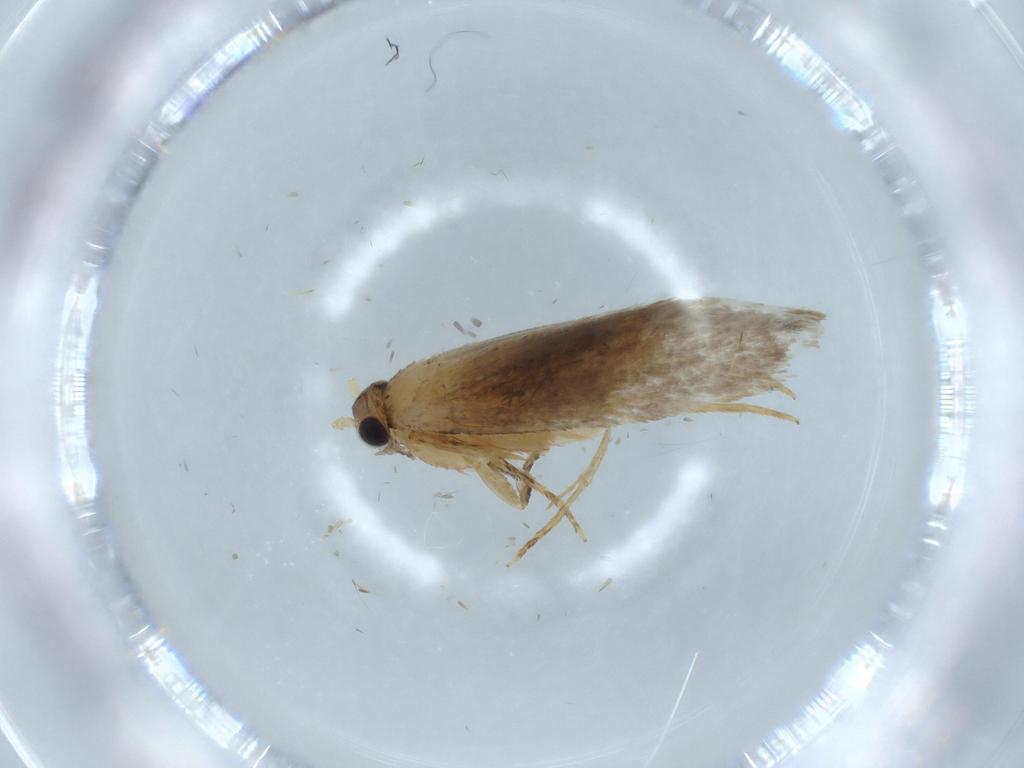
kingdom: Animalia
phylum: Arthropoda
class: Insecta
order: Lepidoptera
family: Tineidae
